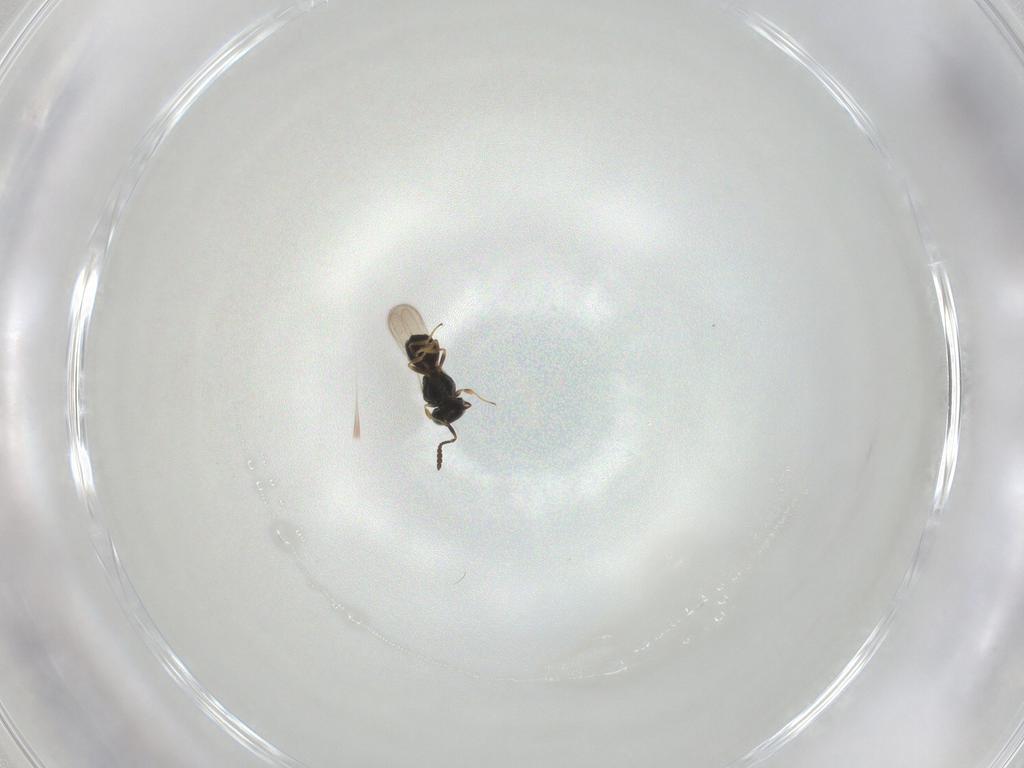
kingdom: Animalia
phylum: Arthropoda
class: Insecta
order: Hymenoptera
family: Scelionidae
